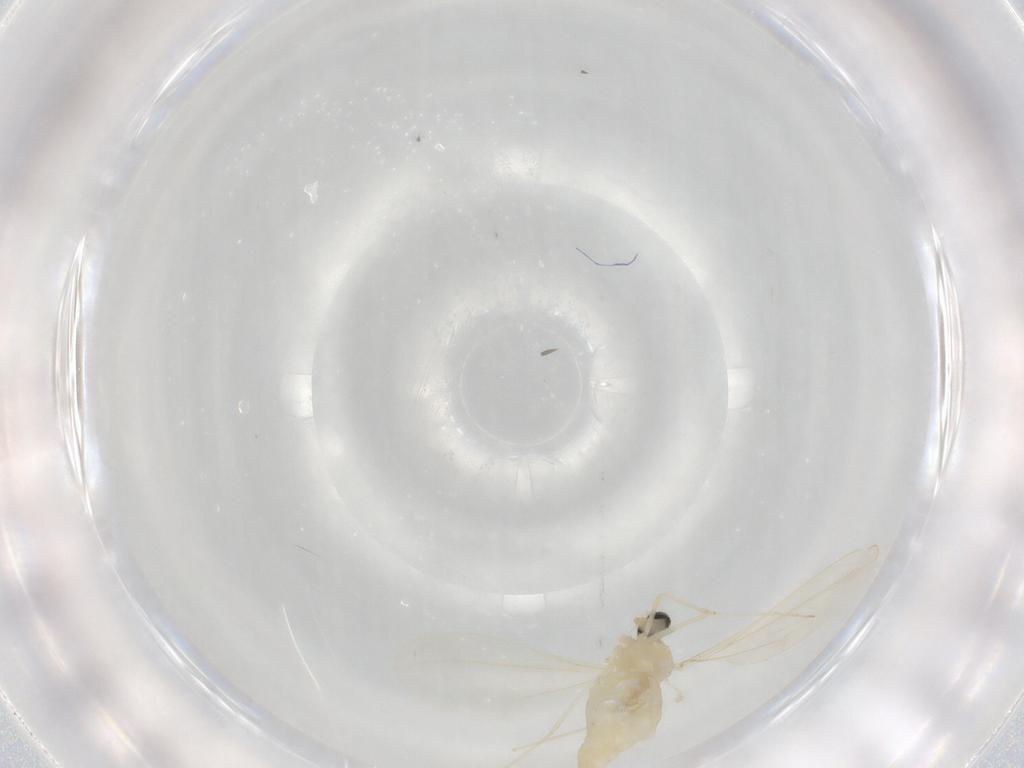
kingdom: Animalia
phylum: Arthropoda
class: Insecta
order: Diptera
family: Cecidomyiidae
